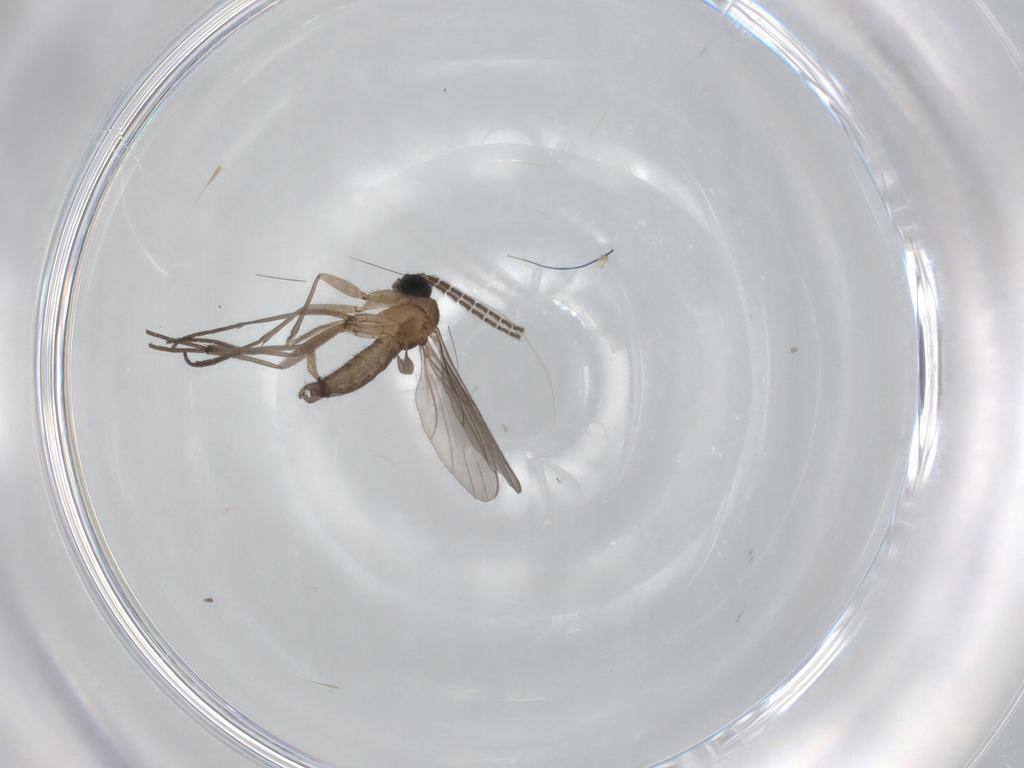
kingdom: Animalia
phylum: Arthropoda
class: Insecta
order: Diptera
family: Sciaridae
